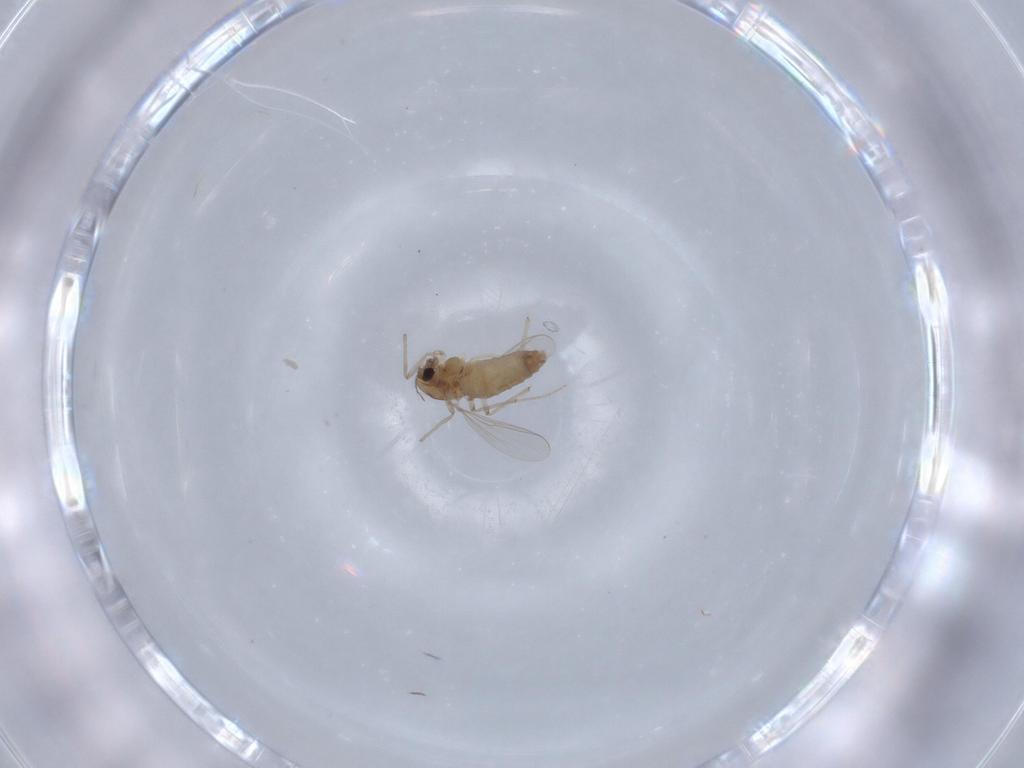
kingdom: Animalia
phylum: Arthropoda
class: Insecta
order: Diptera
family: Chironomidae
